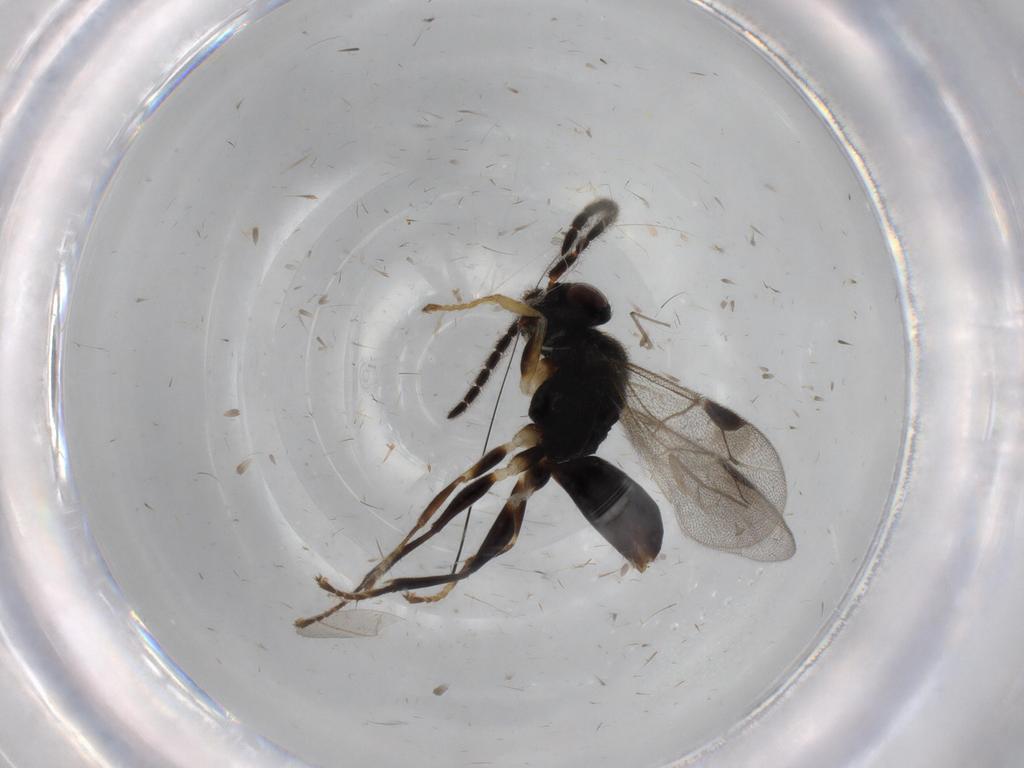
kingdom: Animalia
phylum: Arthropoda
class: Insecta
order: Hymenoptera
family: Dryinidae
